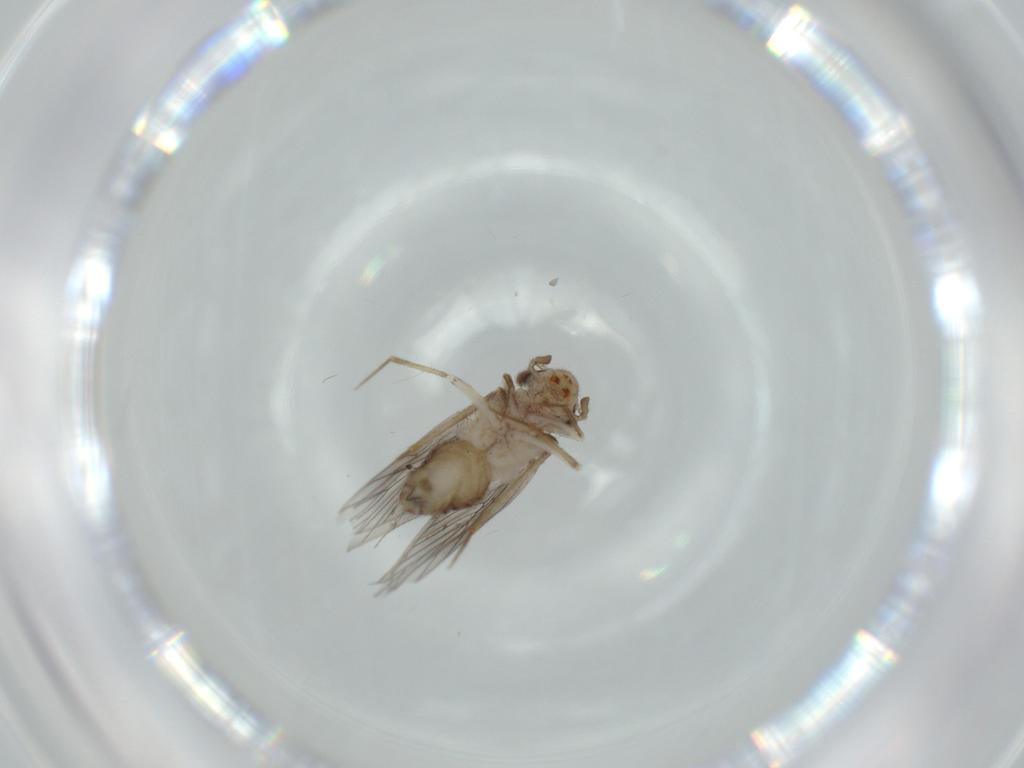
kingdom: Animalia
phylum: Arthropoda
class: Insecta
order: Psocodea
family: Lepidopsocidae
